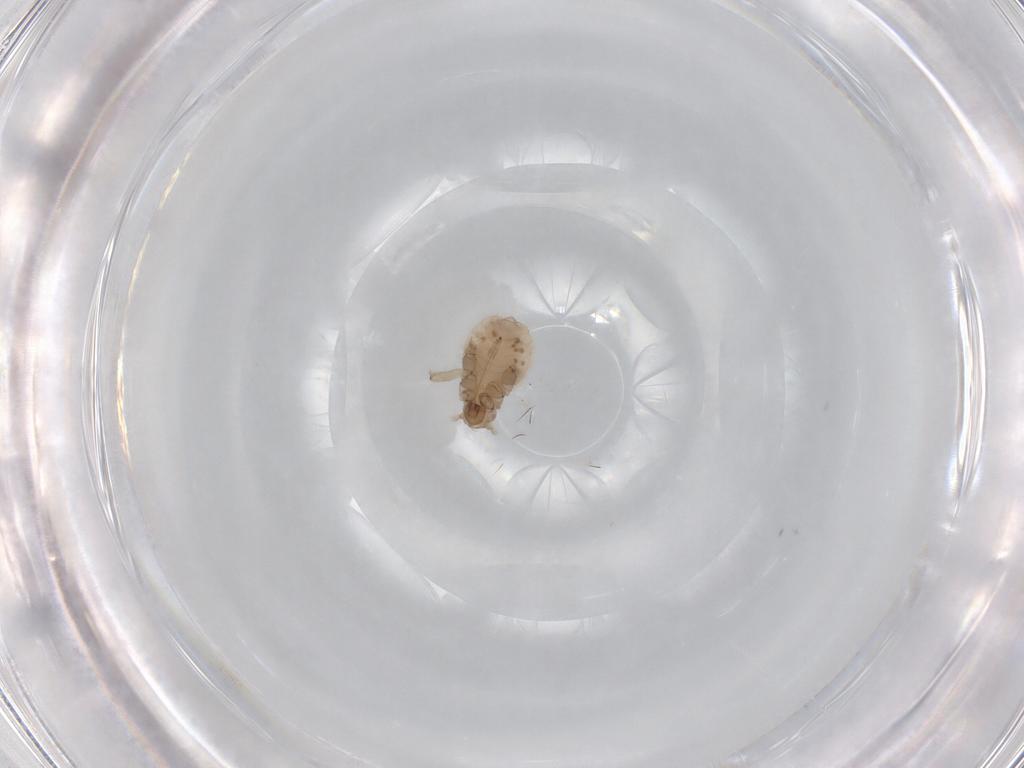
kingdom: Animalia
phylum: Arthropoda
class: Insecta
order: Hemiptera
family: Aphididae
